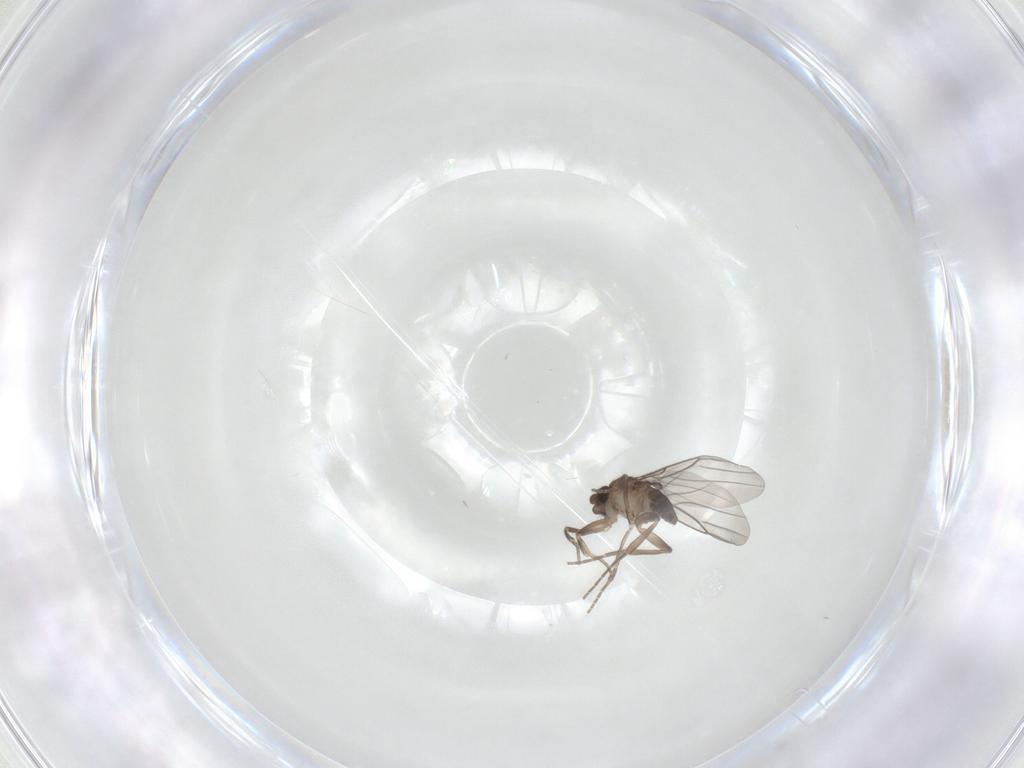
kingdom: Animalia
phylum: Arthropoda
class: Insecta
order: Diptera
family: Phoridae
